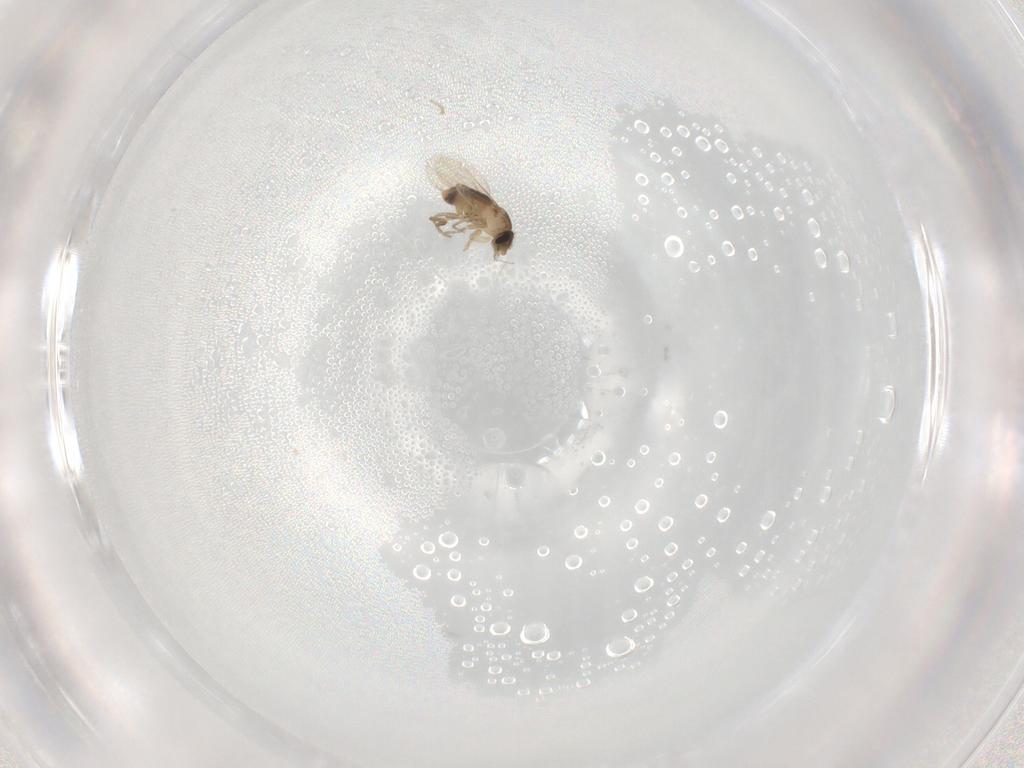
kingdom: Animalia
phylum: Arthropoda
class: Insecta
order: Diptera
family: Phoridae
